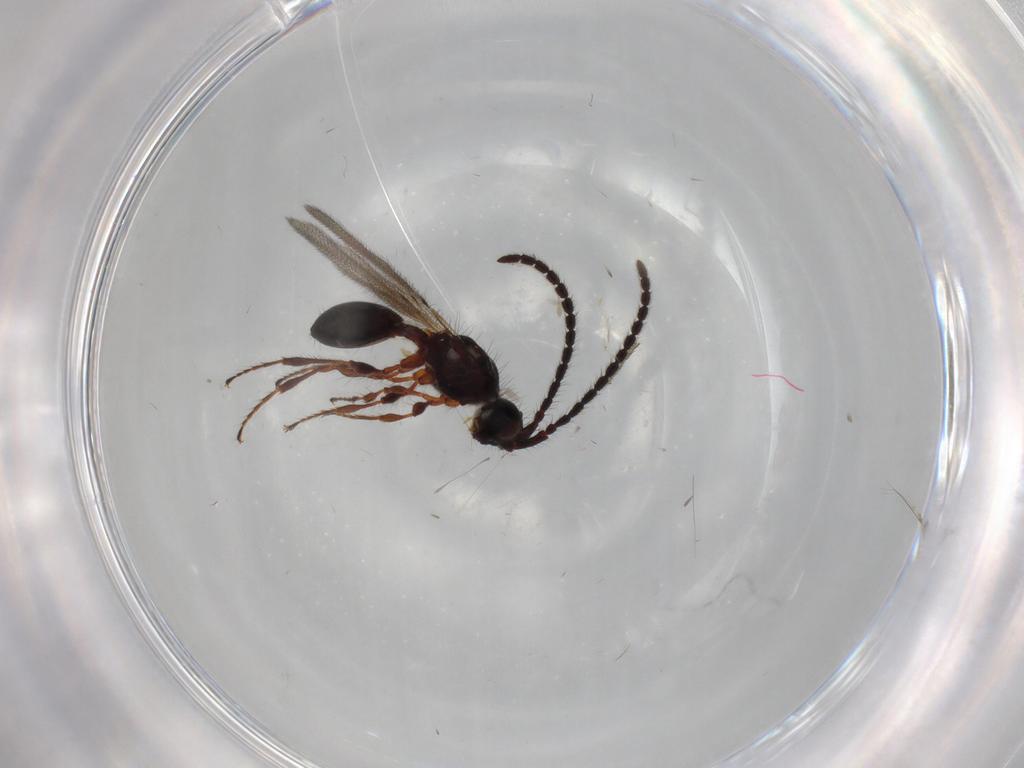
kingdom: Animalia
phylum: Arthropoda
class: Insecta
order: Hymenoptera
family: Diapriidae
